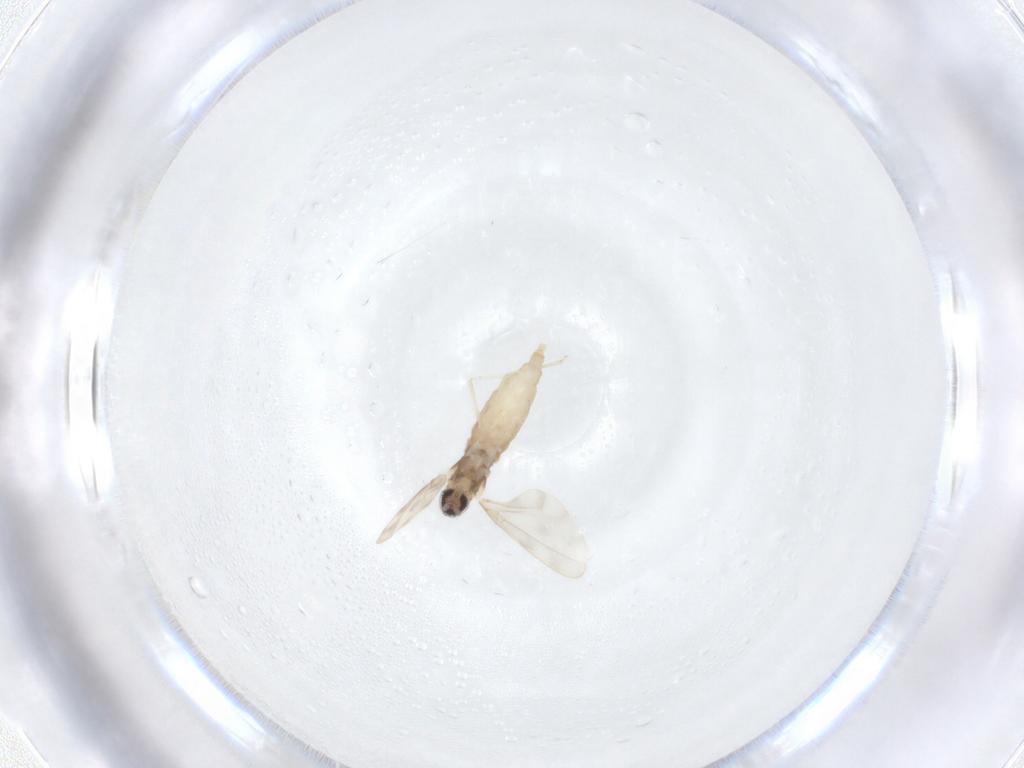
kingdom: Animalia
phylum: Arthropoda
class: Insecta
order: Diptera
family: Cecidomyiidae
